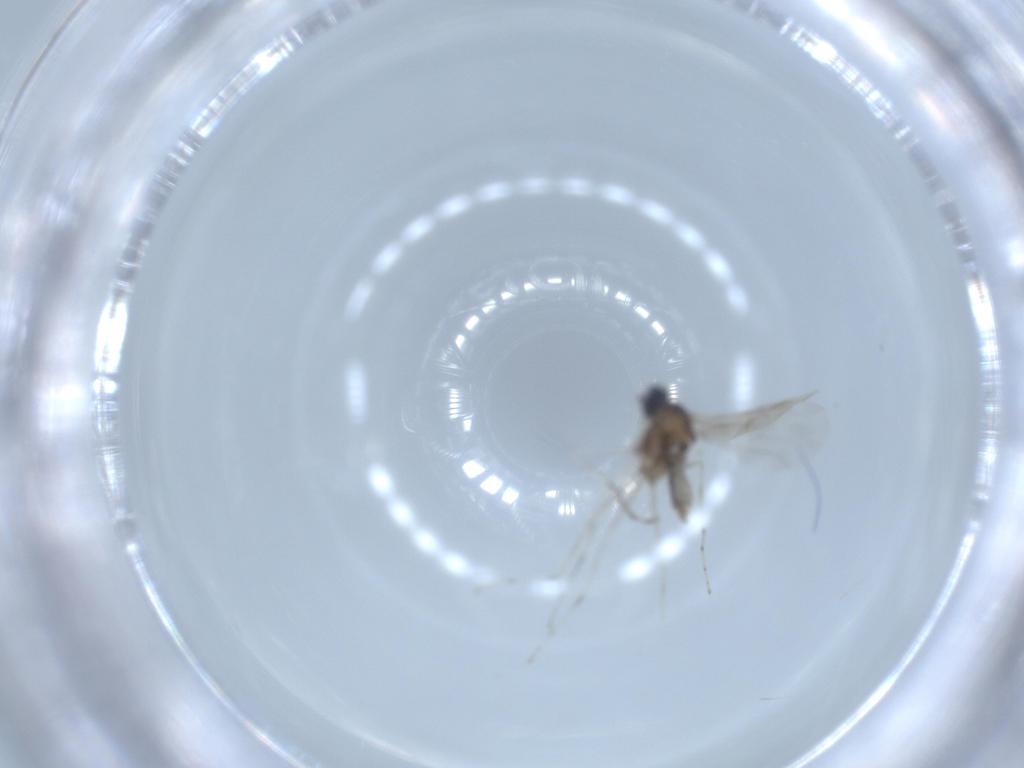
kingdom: Animalia
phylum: Arthropoda
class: Insecta
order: Diptera
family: Cecidomyiidae
